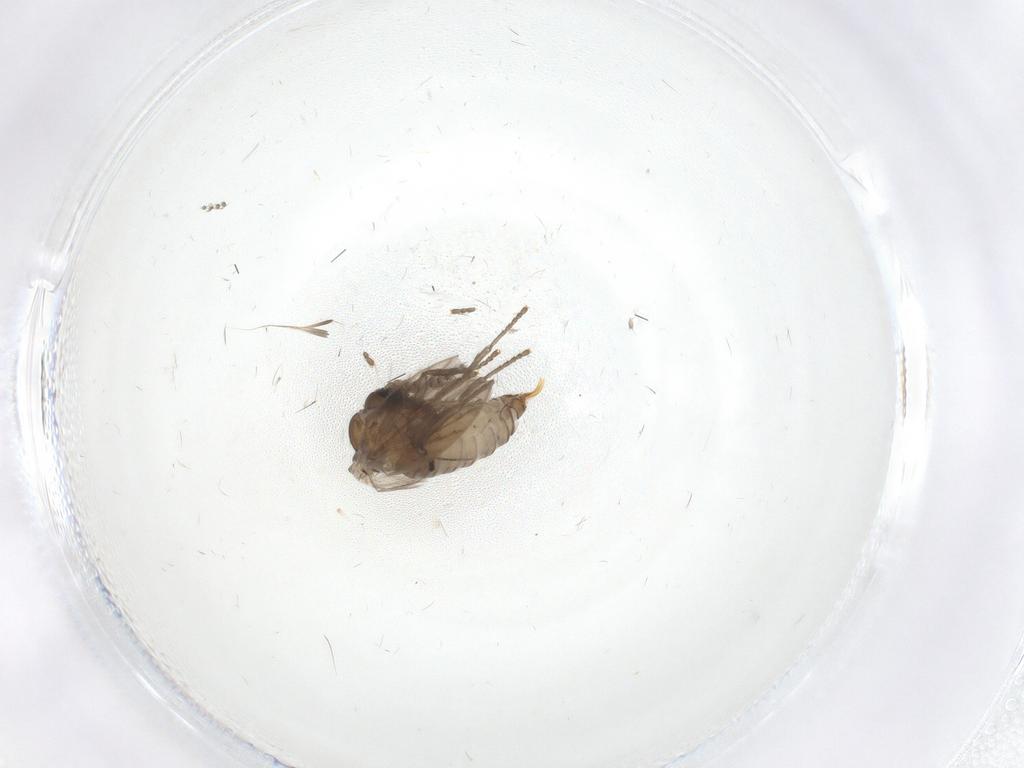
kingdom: Animalia
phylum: Arthropoda
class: Insecta
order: Diptera
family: Psychodidae
